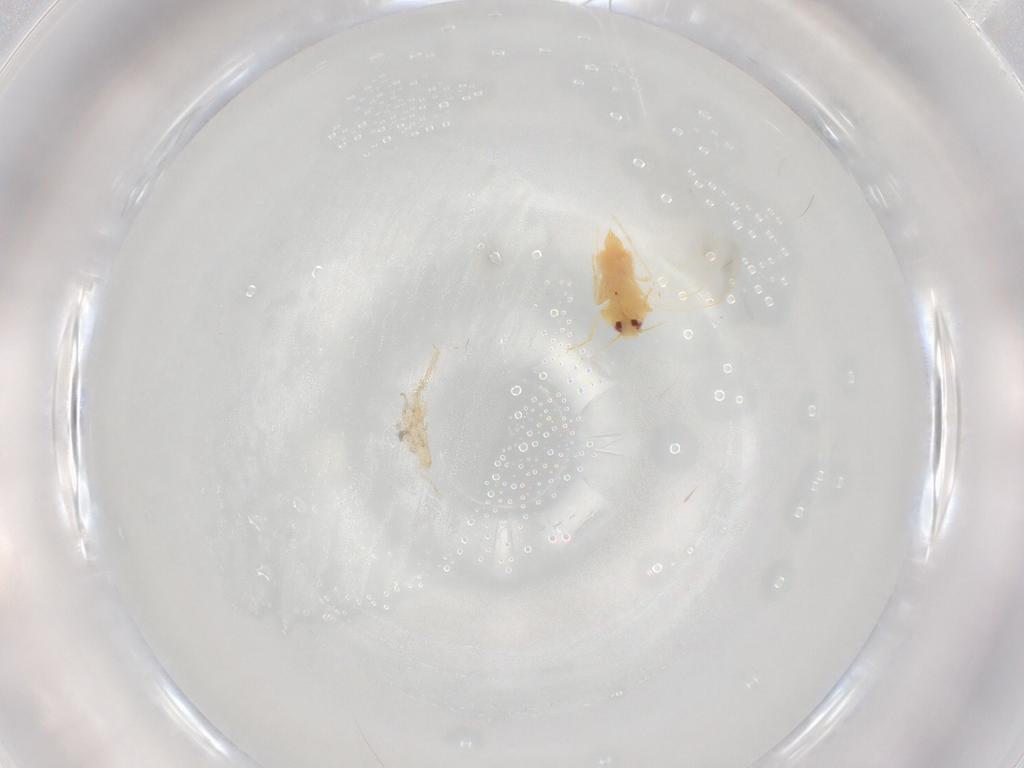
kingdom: Animalia
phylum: Arthropoda
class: Insecta
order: Hemiptera
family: Aleyrodidae
